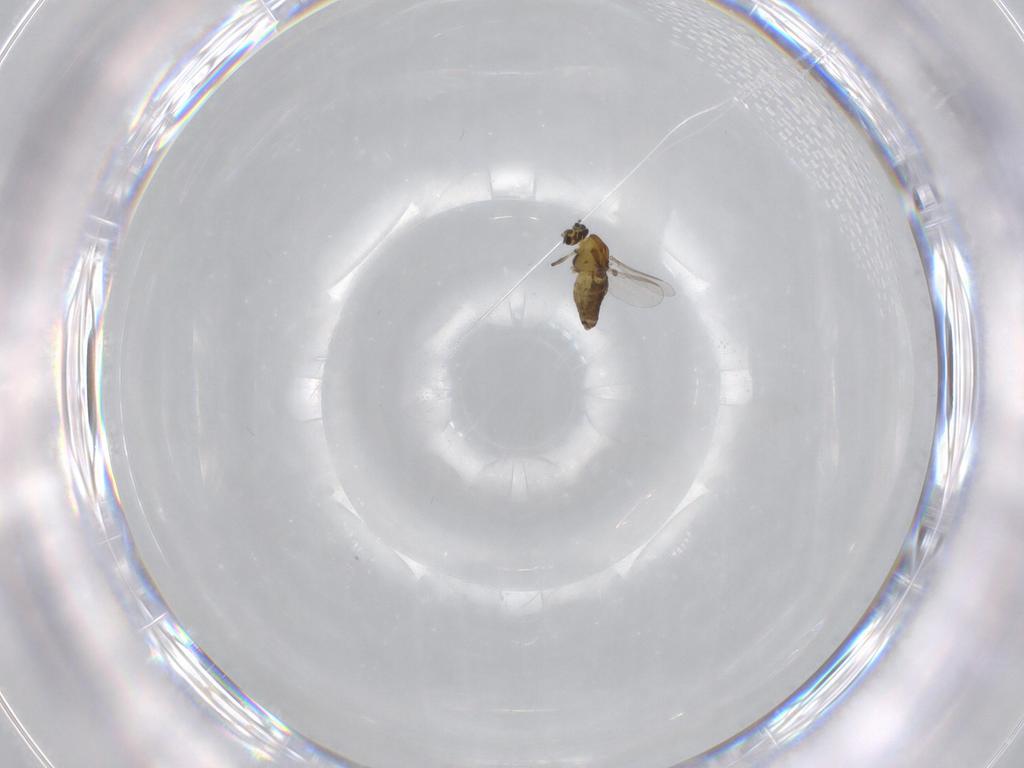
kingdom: Animalia
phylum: Arthropoda
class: Insecta
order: Diptera
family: Chironomidae
